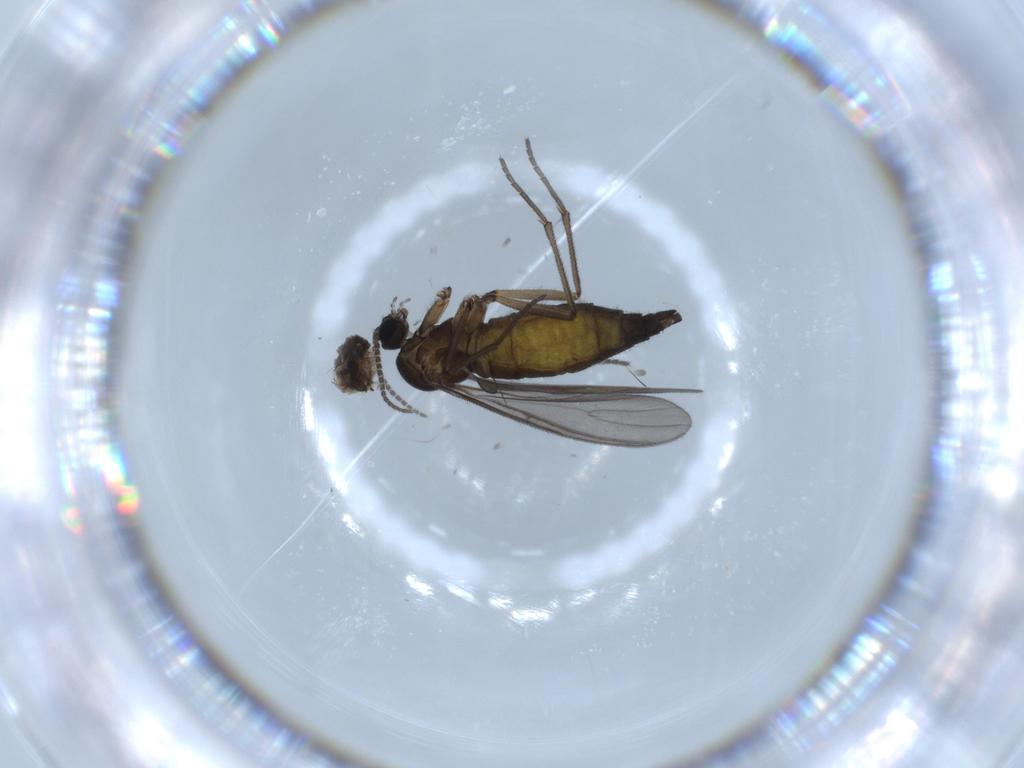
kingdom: Animalia
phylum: Arthropoda
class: Insecta
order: Diptera
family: Sciaridae
